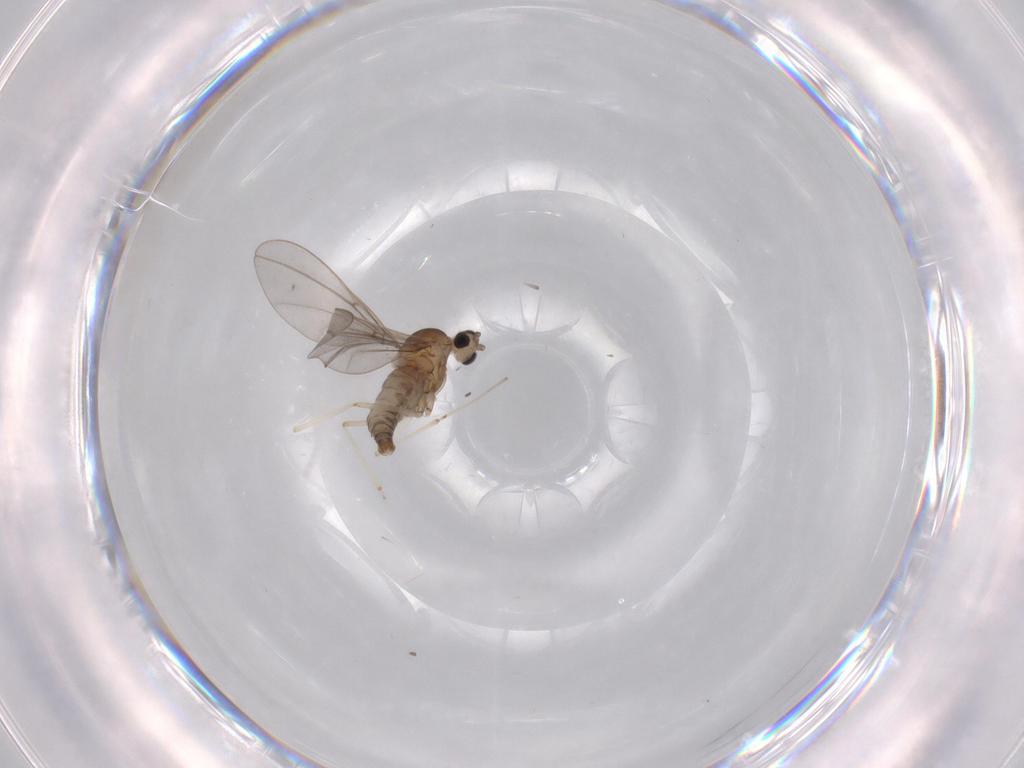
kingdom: Animalia
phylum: Arthropoda
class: Insecta
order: Diptera
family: Cecidomyiidae
